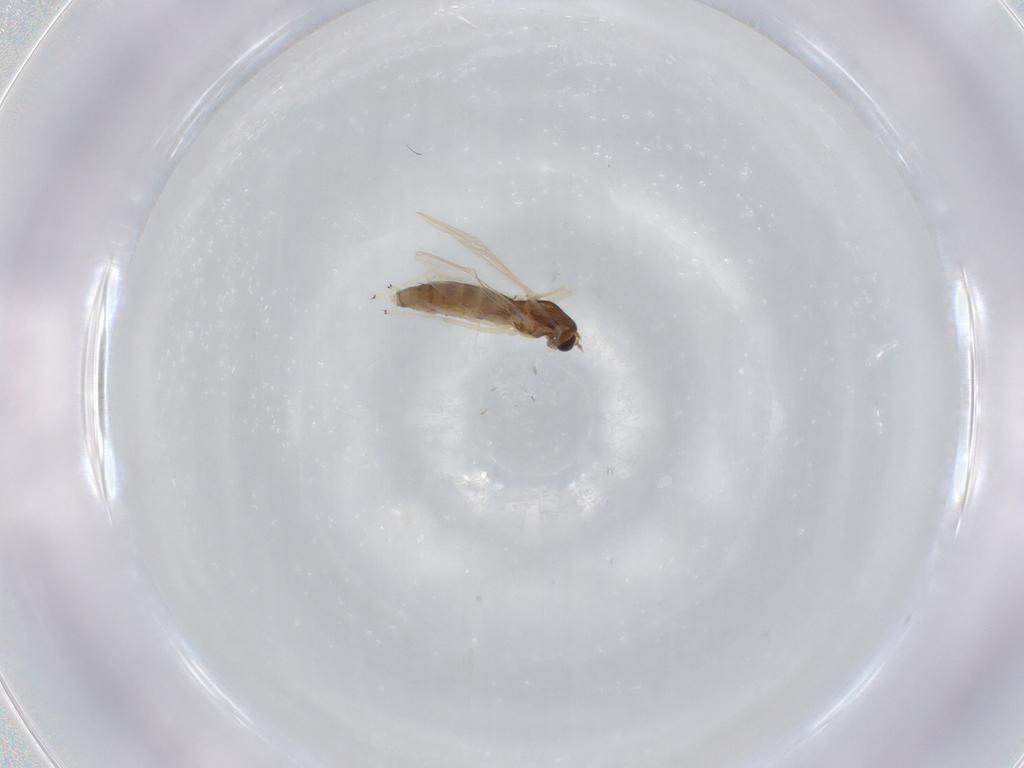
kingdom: Animalia
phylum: Arthropoda
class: Insecta
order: Diptera
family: Chironomidae
